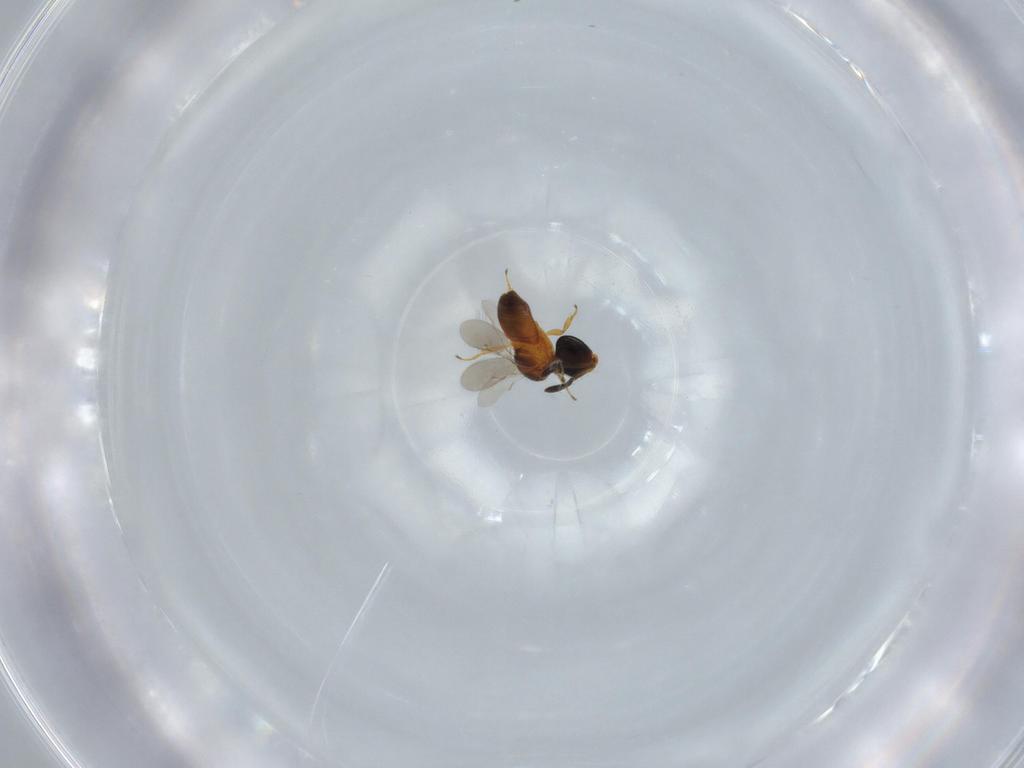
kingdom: Animalia
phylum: Arthropoda
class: Insecta
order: Hymenoptera
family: Scelionidae
